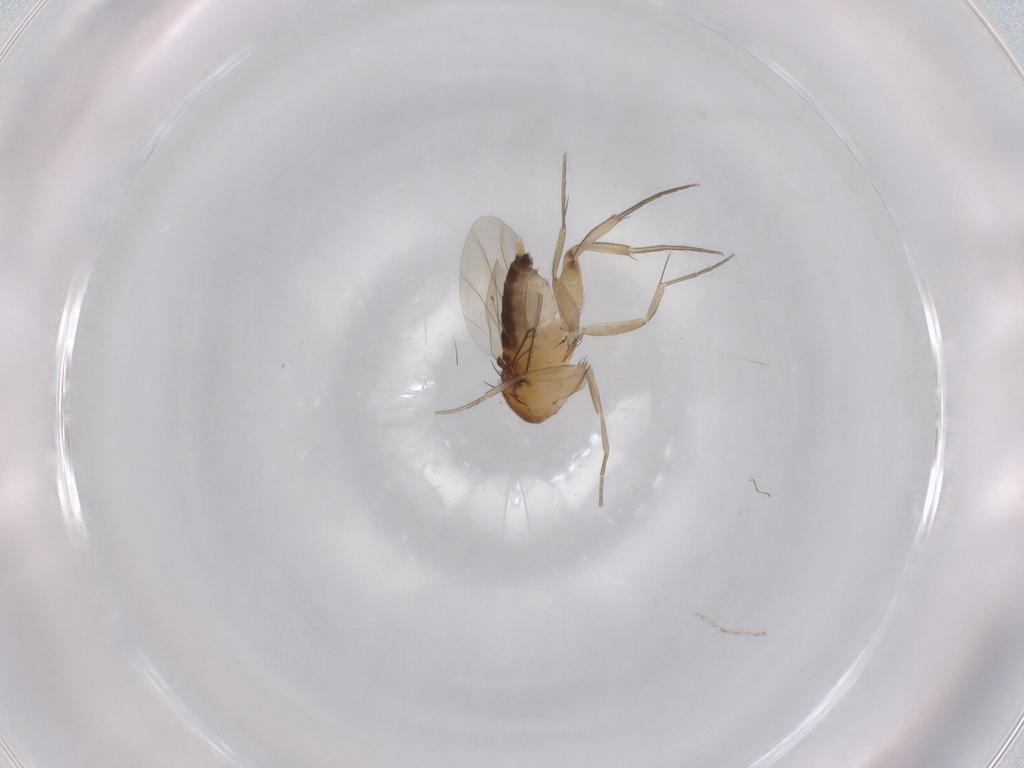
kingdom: Animalia
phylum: Arthropoda
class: Insecta
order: Diptera
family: Phoridae
